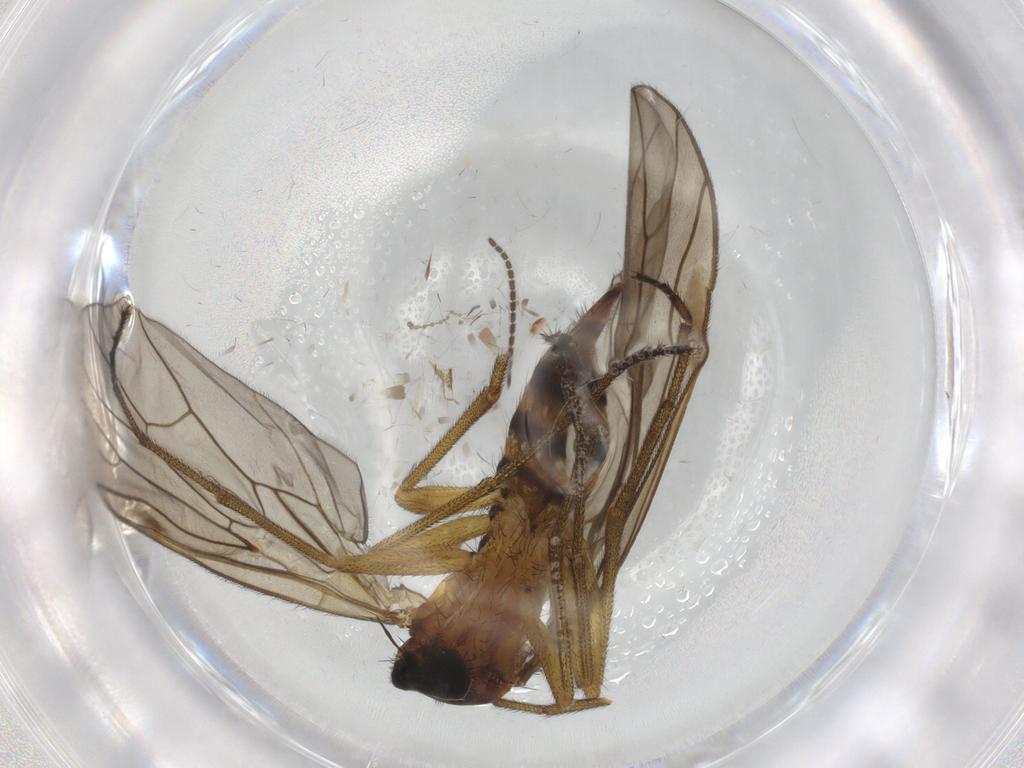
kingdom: Animalia
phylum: Arthropoda
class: Insecta
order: Diptera
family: Brachystomatidae
